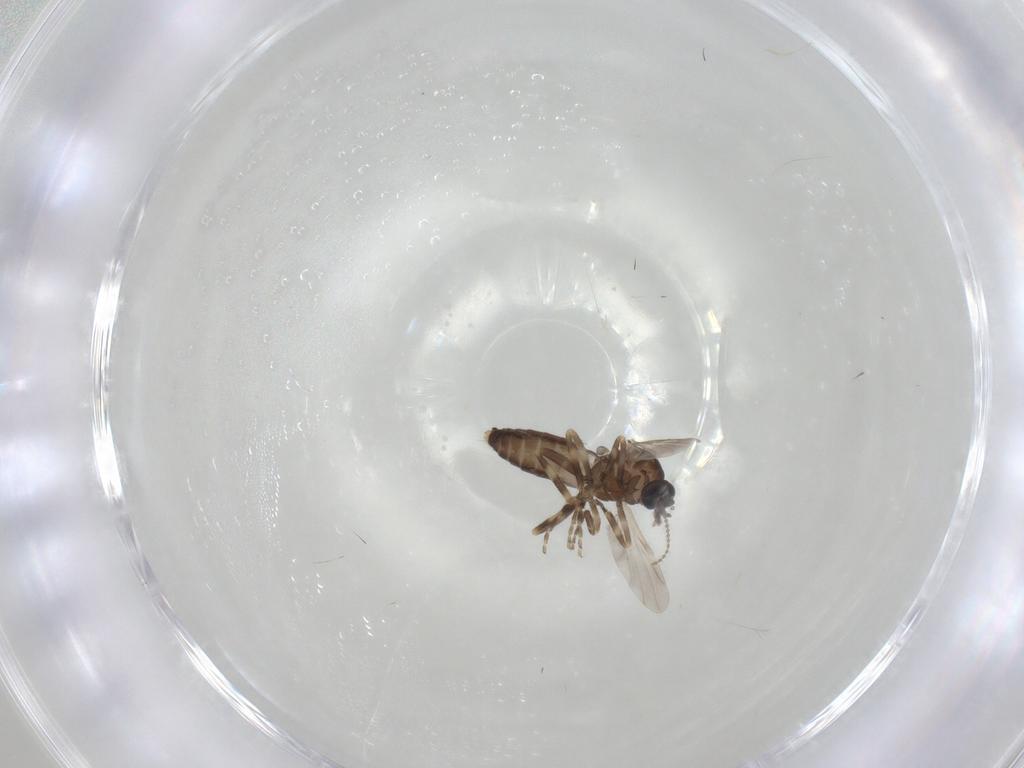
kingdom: Animalia
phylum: Arthropoda
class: Insecta
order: Diptera
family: Ceratopogonidae
